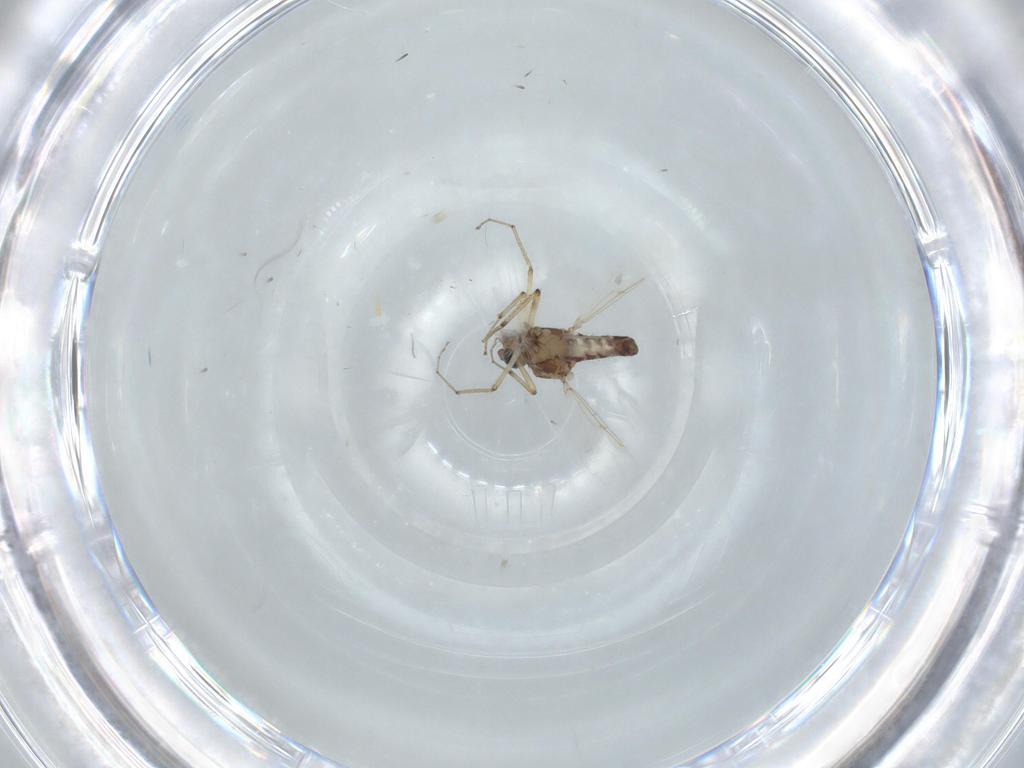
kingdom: Animalia
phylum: Arthropoda
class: Insecta
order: Diptera
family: Ceratopogonidae
